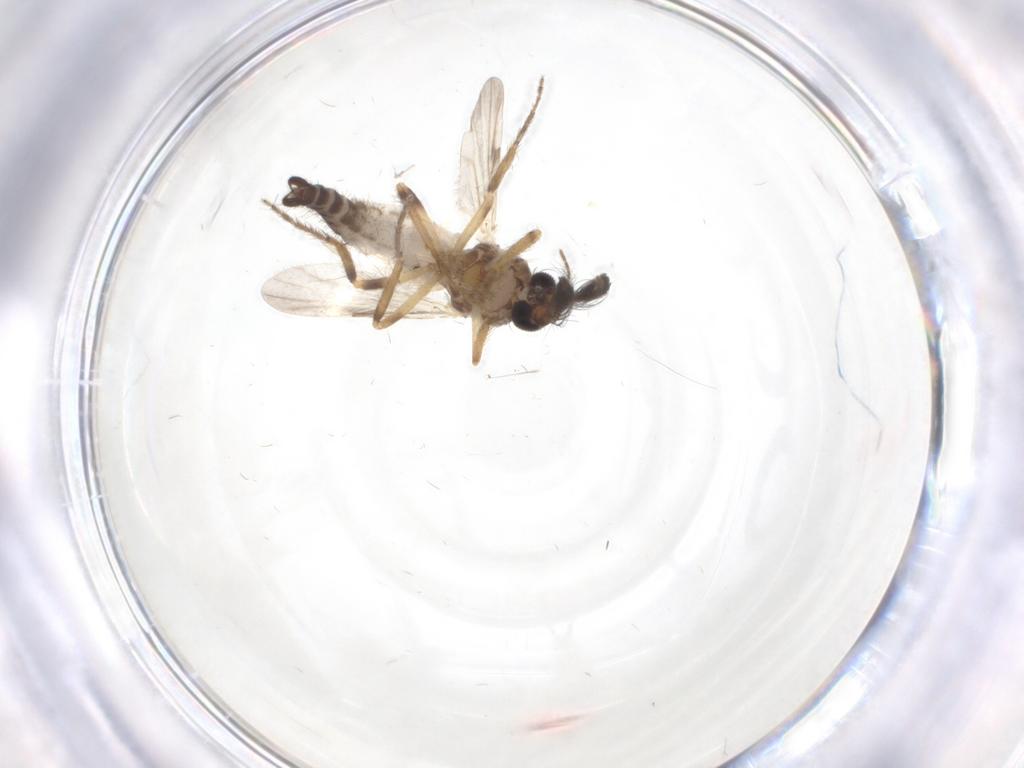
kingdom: Animalia
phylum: Arthropoda
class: Insecta
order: Diptera
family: Ceratopogonidae
